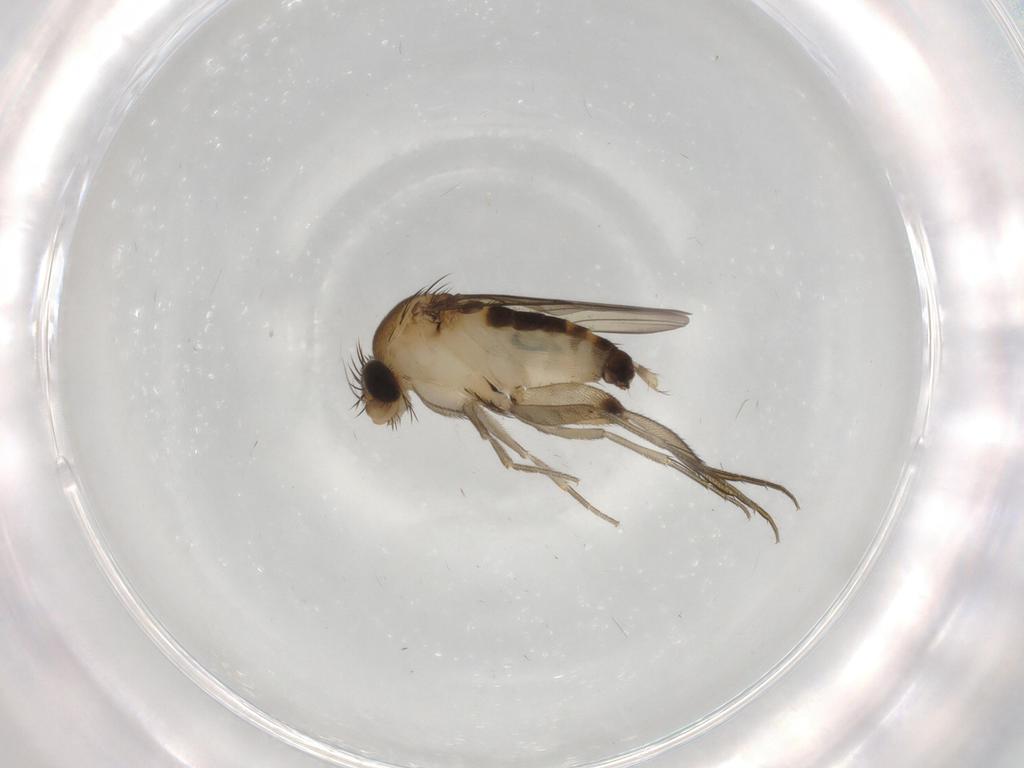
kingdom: Animalia
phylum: Arthropoda
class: Insecta
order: Diptera
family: Phoridae
